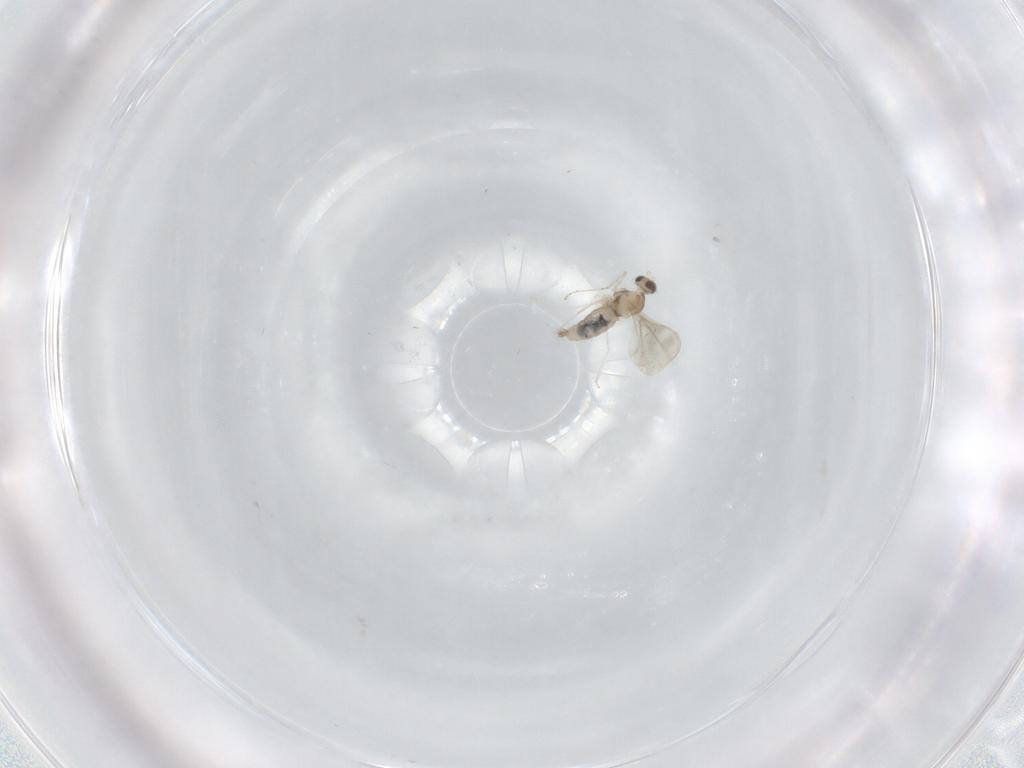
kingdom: Animalia
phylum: Arthropoda
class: Insecta
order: Diptera
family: Cecidomyiidae
